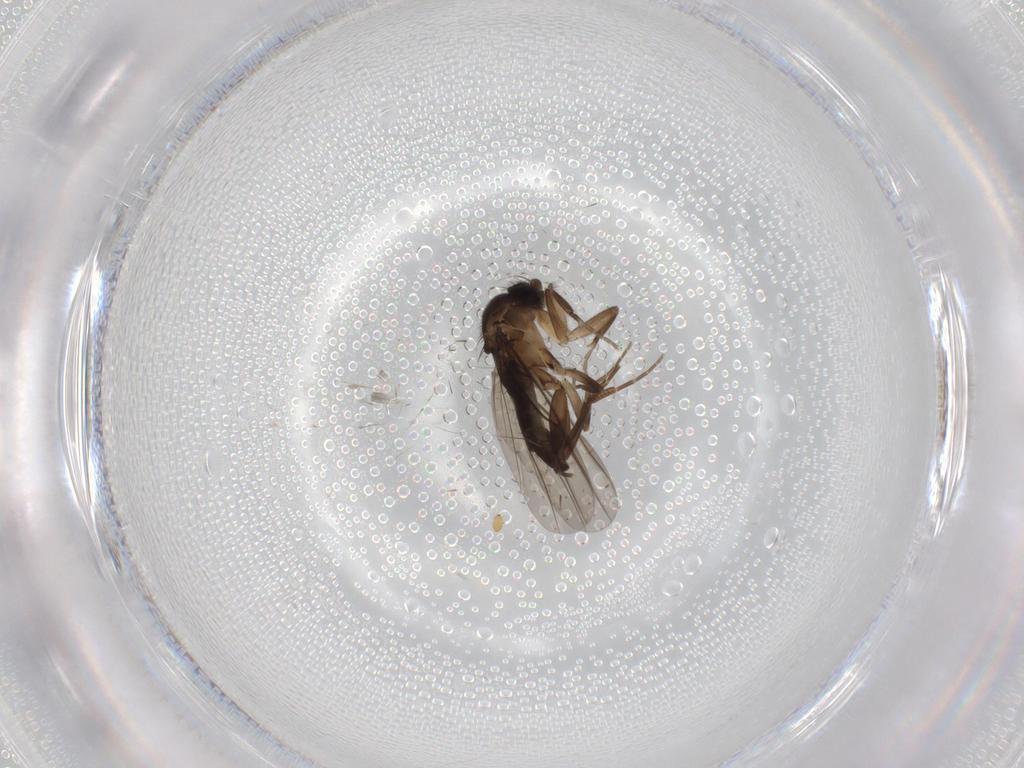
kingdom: Animalia
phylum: Arthropoda
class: Insecta
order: Diptera
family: Phoridae
